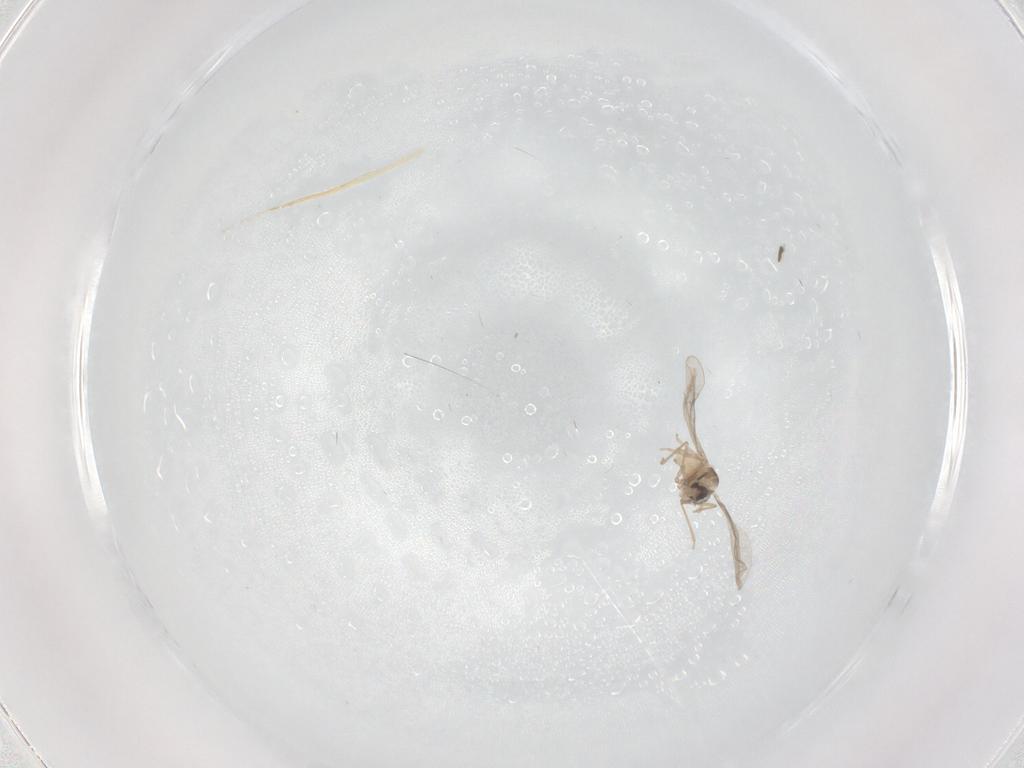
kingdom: Animalia
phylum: Arthropoda
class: Insecta
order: Diptera
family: Cecidomyiidae
